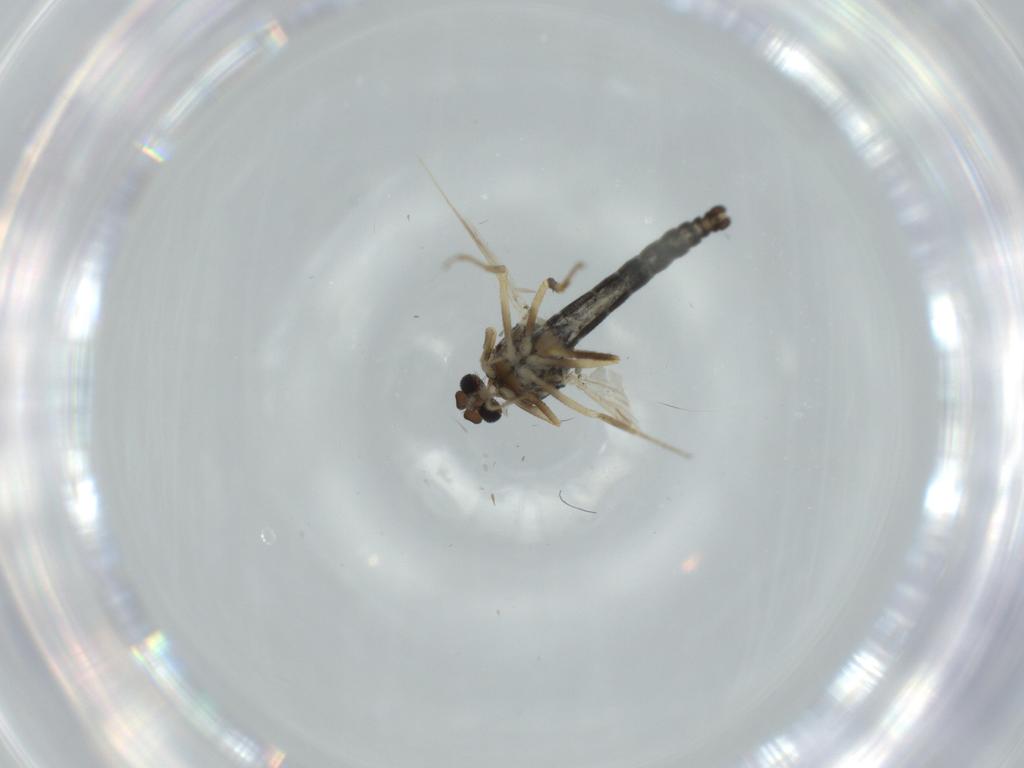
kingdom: Animalia
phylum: Arthropoda
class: Insecta
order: Diptera
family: Ceratopogonidae
